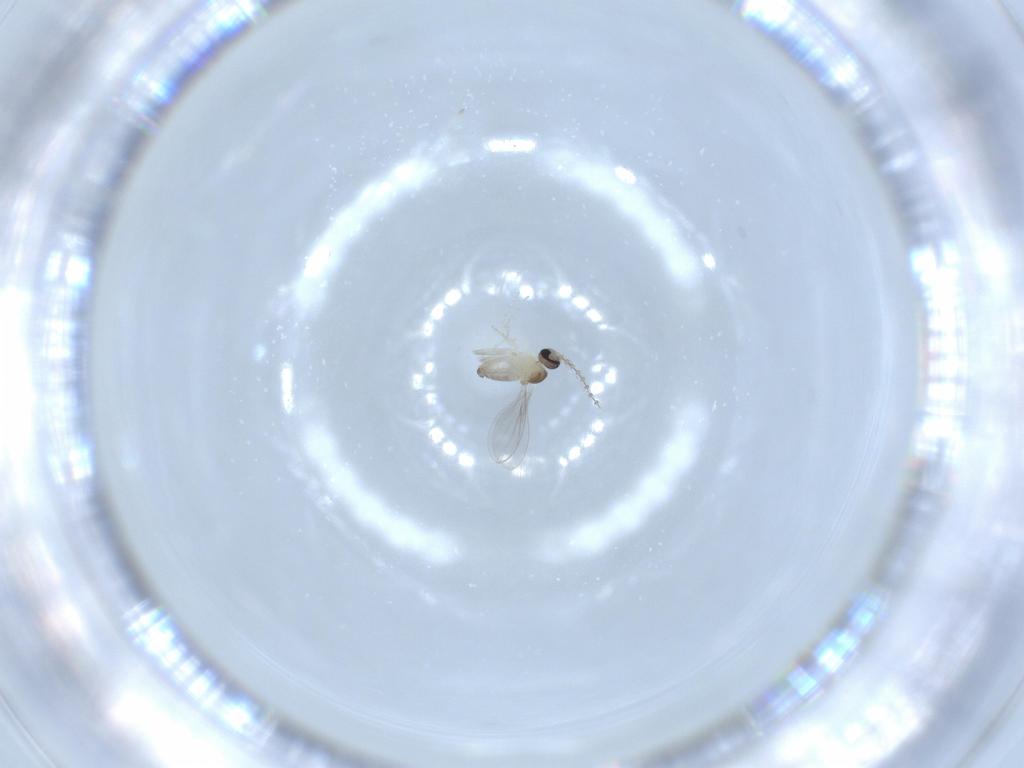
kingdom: Animalia
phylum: Arthropoda
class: Insecta
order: Diptera
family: Cecidomyiidae
